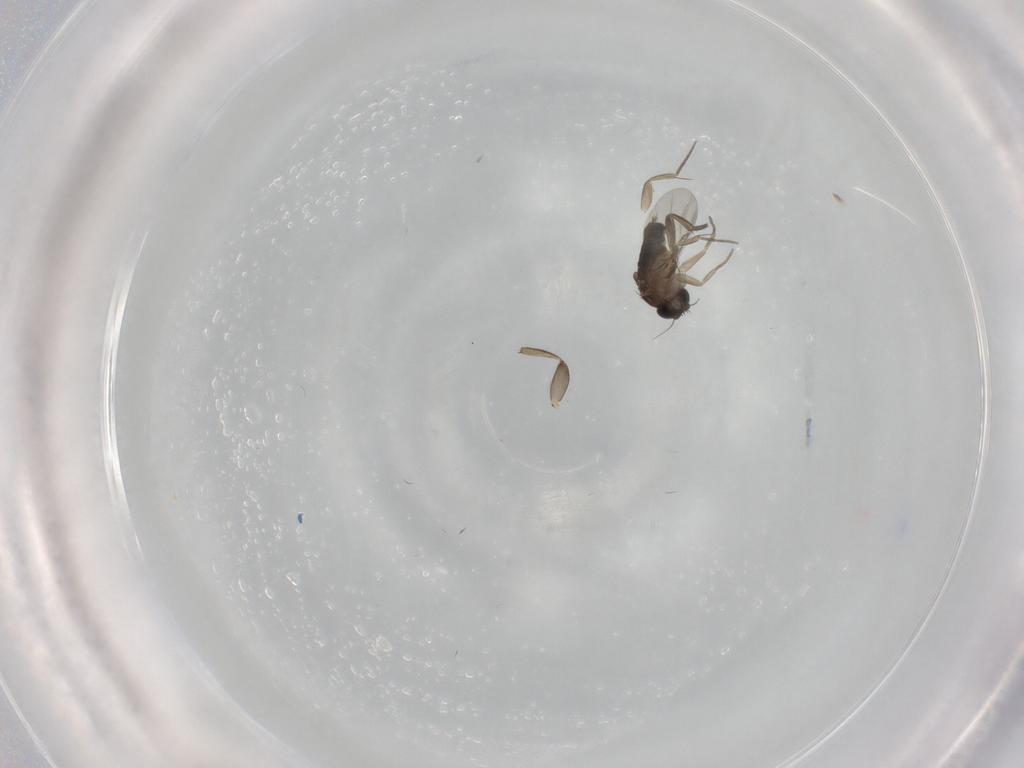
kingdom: Animalia
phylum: Arthropoda
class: Insecta
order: Diptera
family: Phoridae
